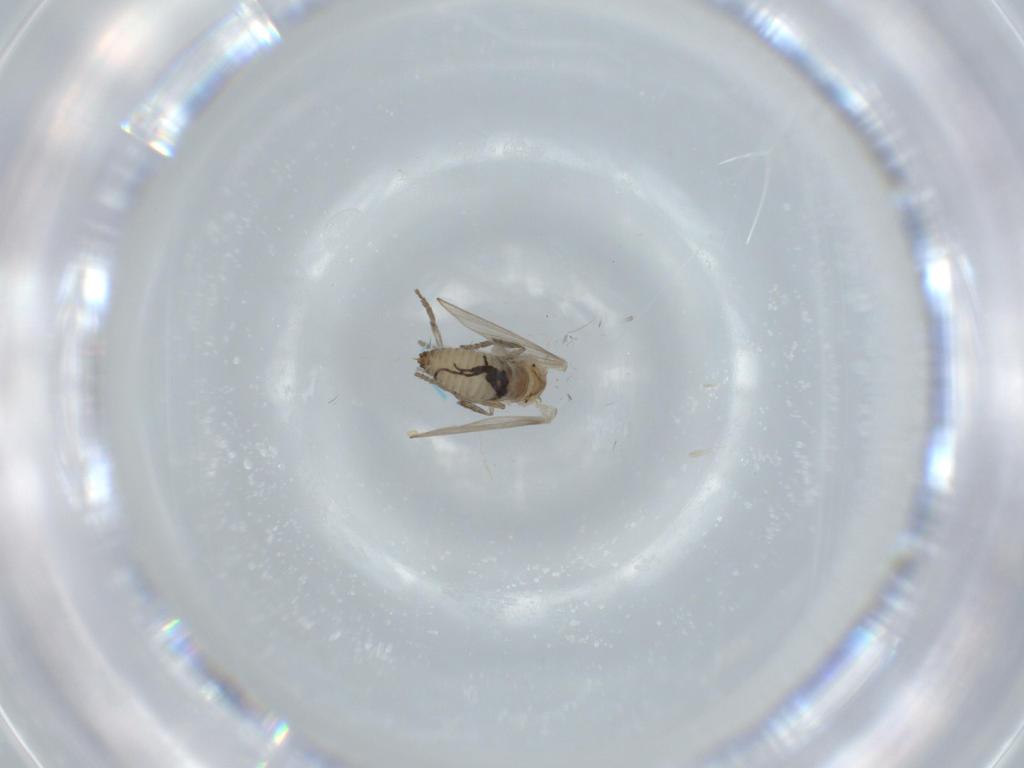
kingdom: Animalia
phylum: Arthropoda
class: Insecta
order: Diptera
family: Psychodidae
